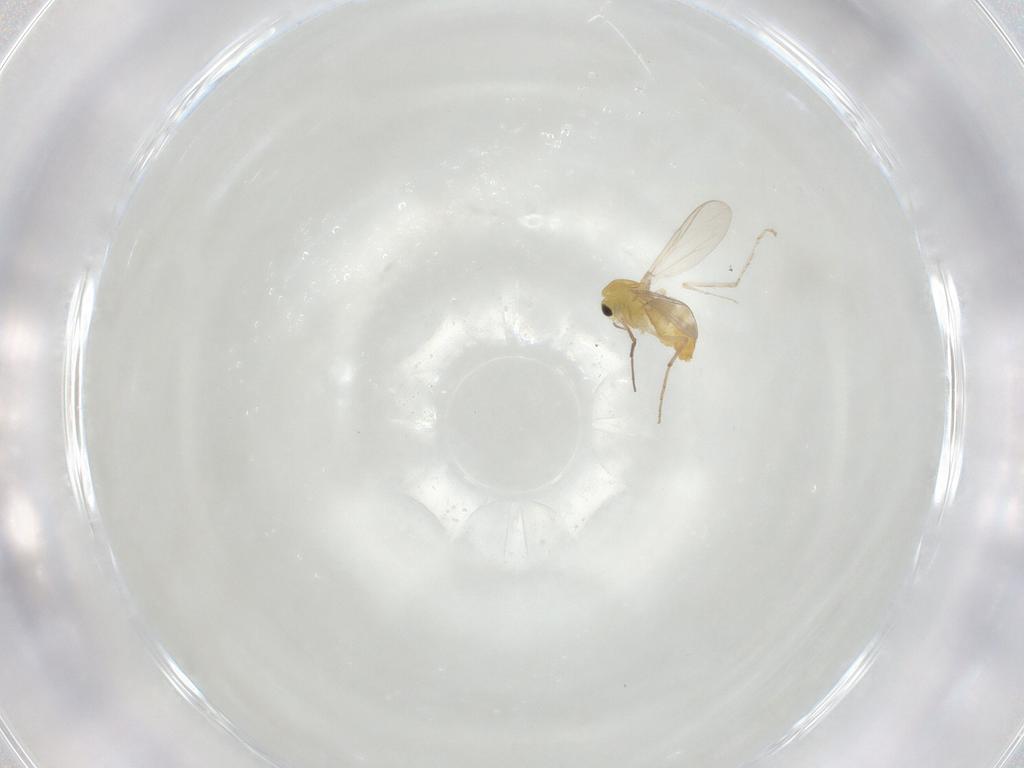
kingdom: Animalia
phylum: Arthropoda
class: Insecta
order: Diptera
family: Chironomidae
